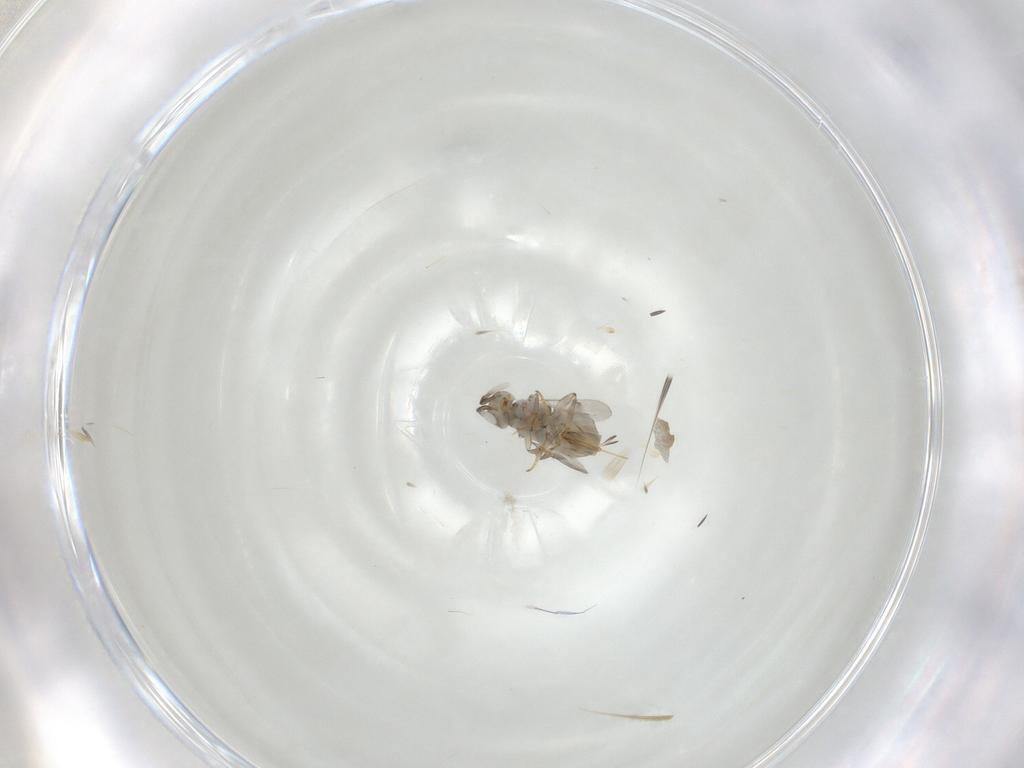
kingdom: Animalia
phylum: Arthropoda
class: Insecta
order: Hymenoptera
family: Encyrtidae
